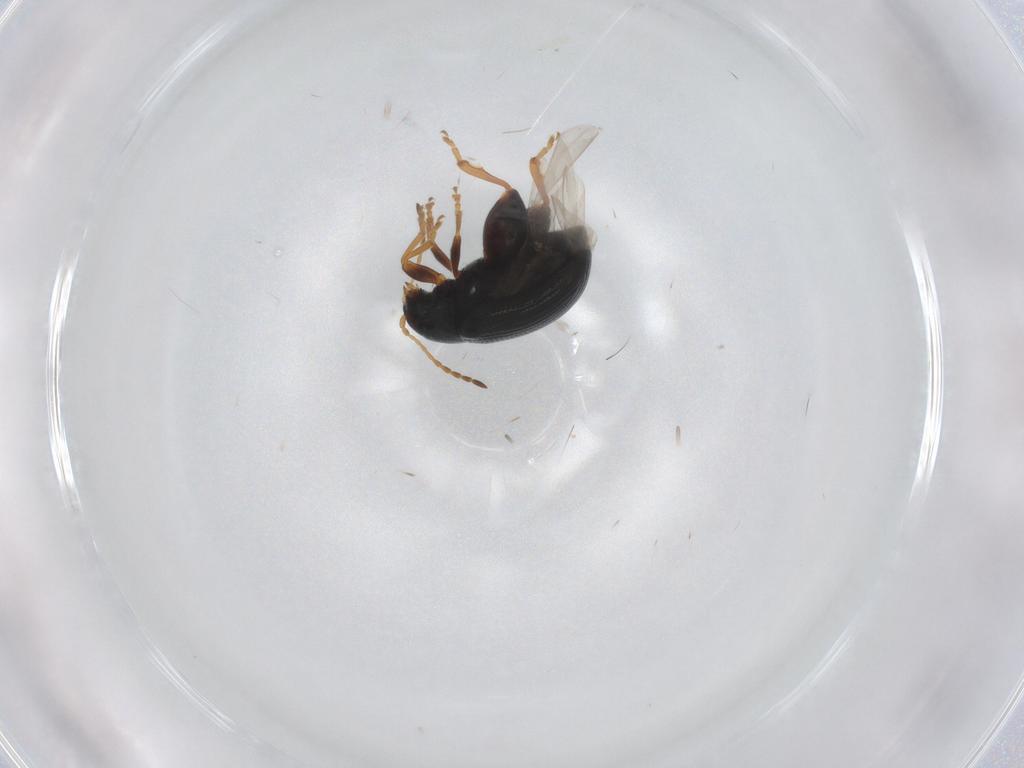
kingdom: Animalia
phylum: Arthropoda
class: Insecta
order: Coleoptera
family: Chrysomelidae
